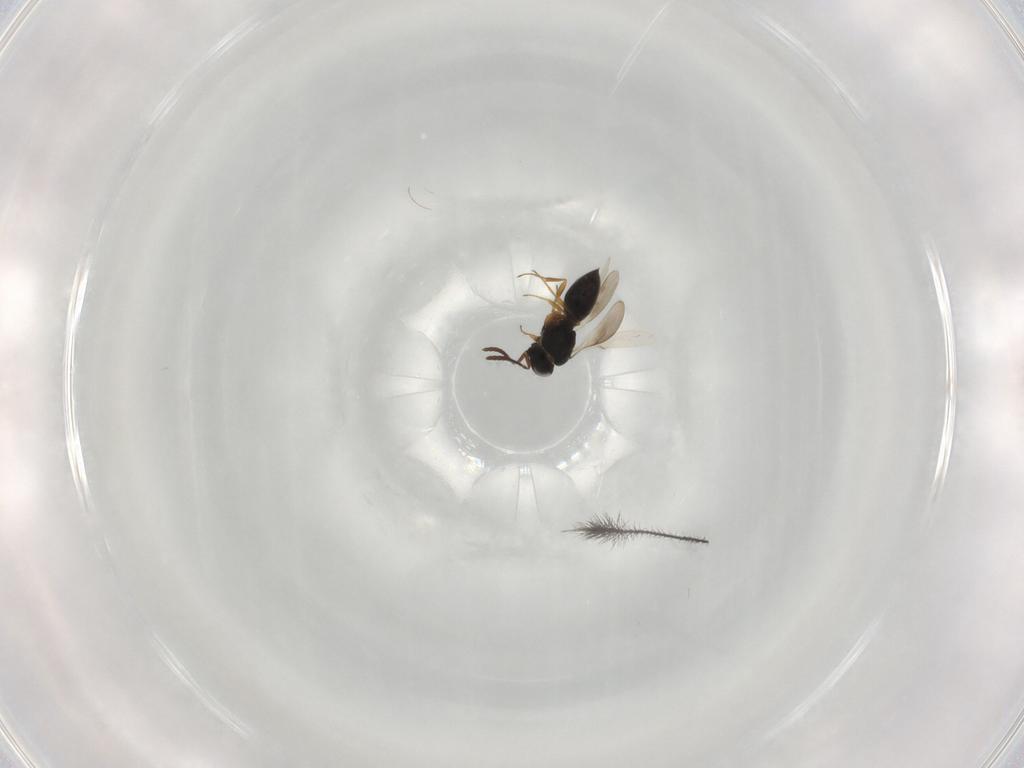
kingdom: Animalia
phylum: Arthropoda
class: Insecta
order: Hymenoptera
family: Scelionidae
